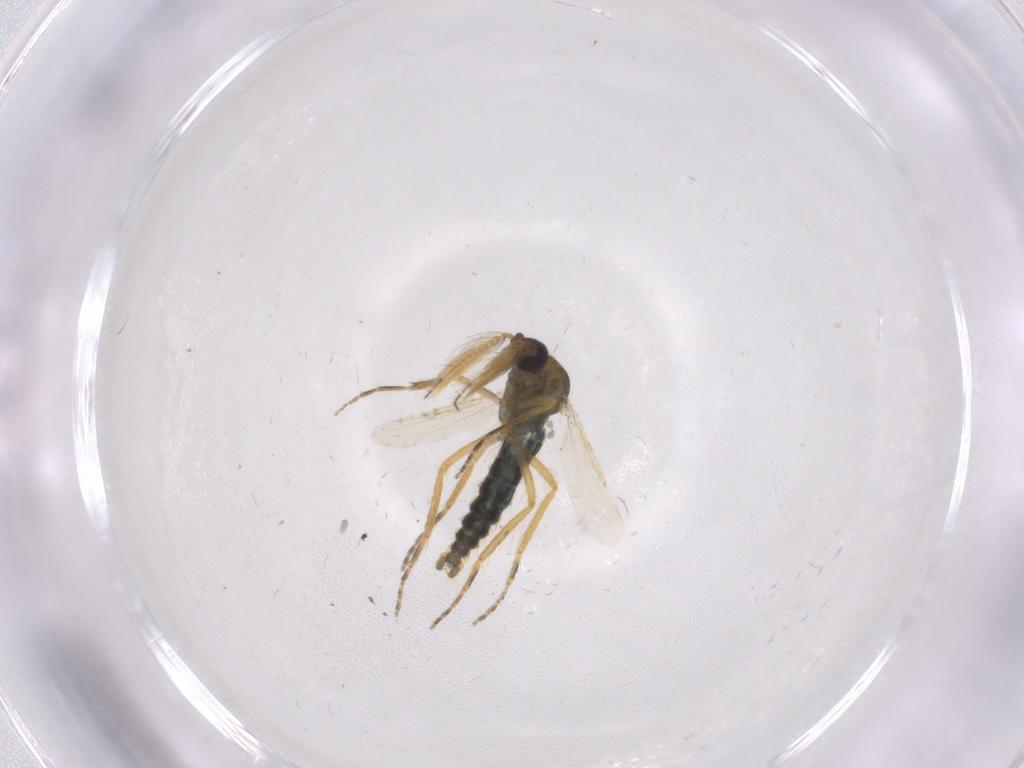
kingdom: Animalia
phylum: Arthropoda
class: Insecta
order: Diptera
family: Ceratopogonidae
